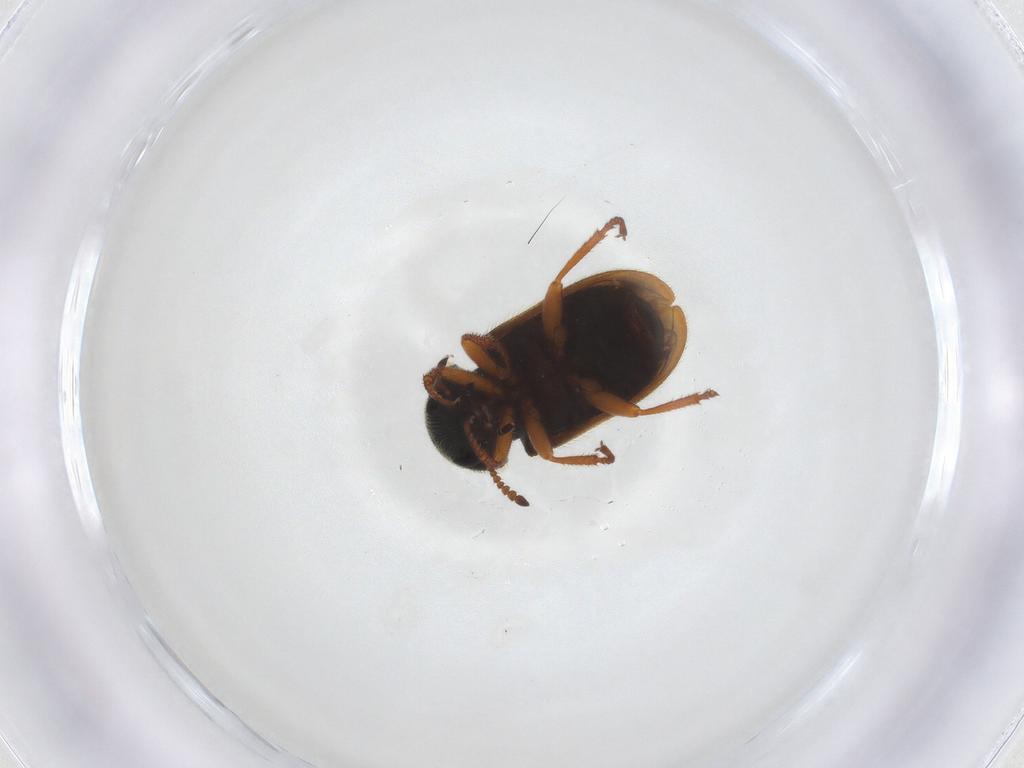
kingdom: Animalia
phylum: Arthropoda
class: Insecta
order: Coleoptera
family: Melyridae
